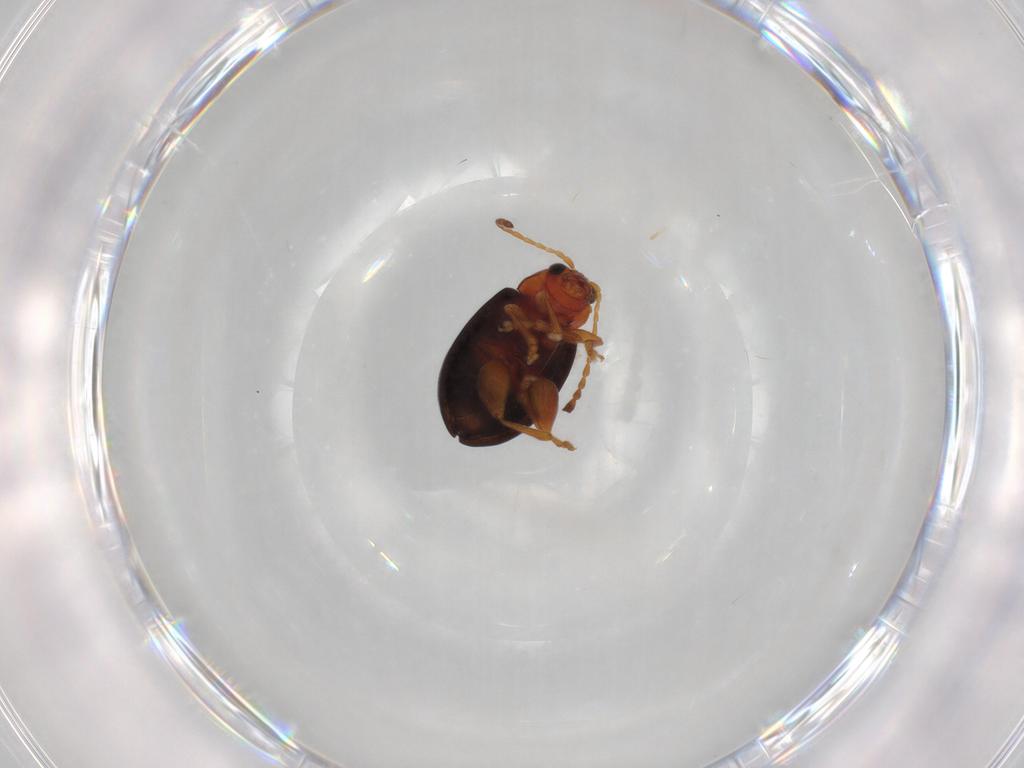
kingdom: Animalia
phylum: Arthropoda
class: Insecta
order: Coleoptera
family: Chrysomelidae
